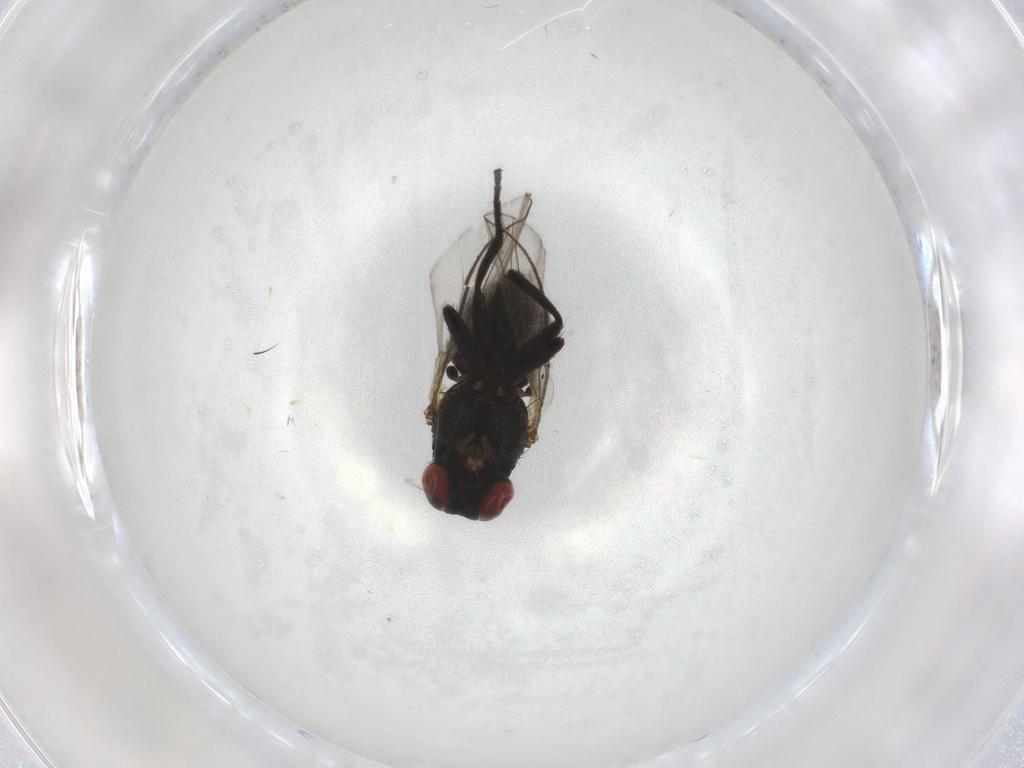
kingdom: Animalia
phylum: Arthropoda
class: Insecta
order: Diptera
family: Agromyzidae
